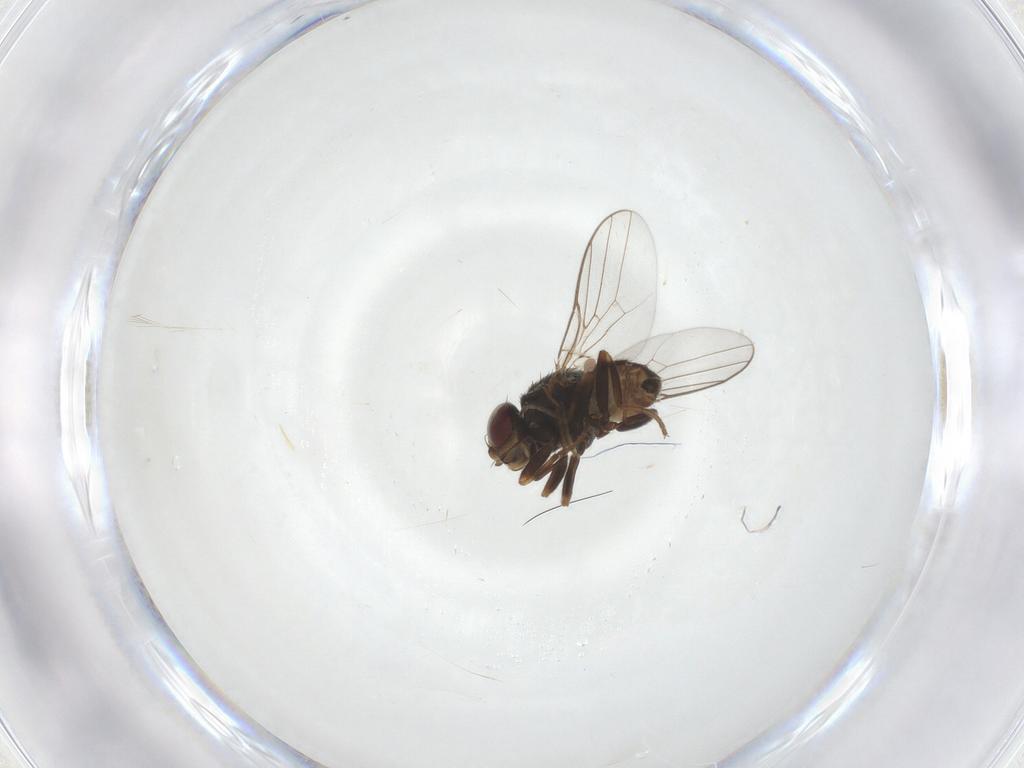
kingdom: Animalia
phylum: Arthropoda
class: Insecta
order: Diptera
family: Chloropidae
